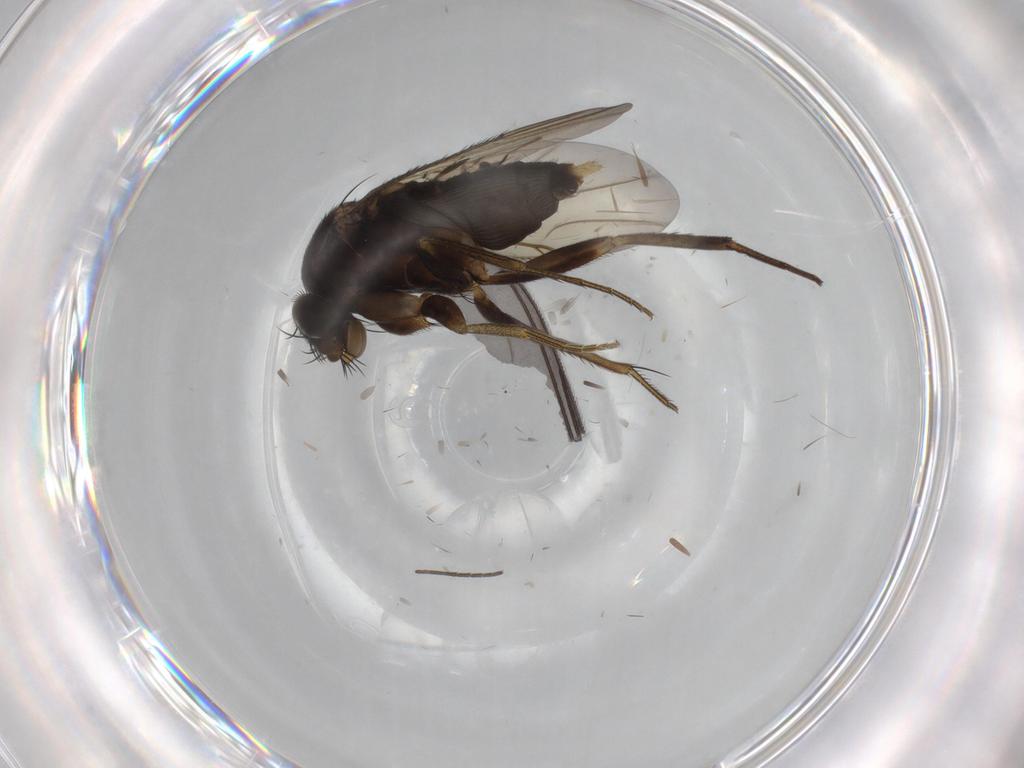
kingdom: Animalia
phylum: Arthropoda
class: Insecta
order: Diptera
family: Phoridae
